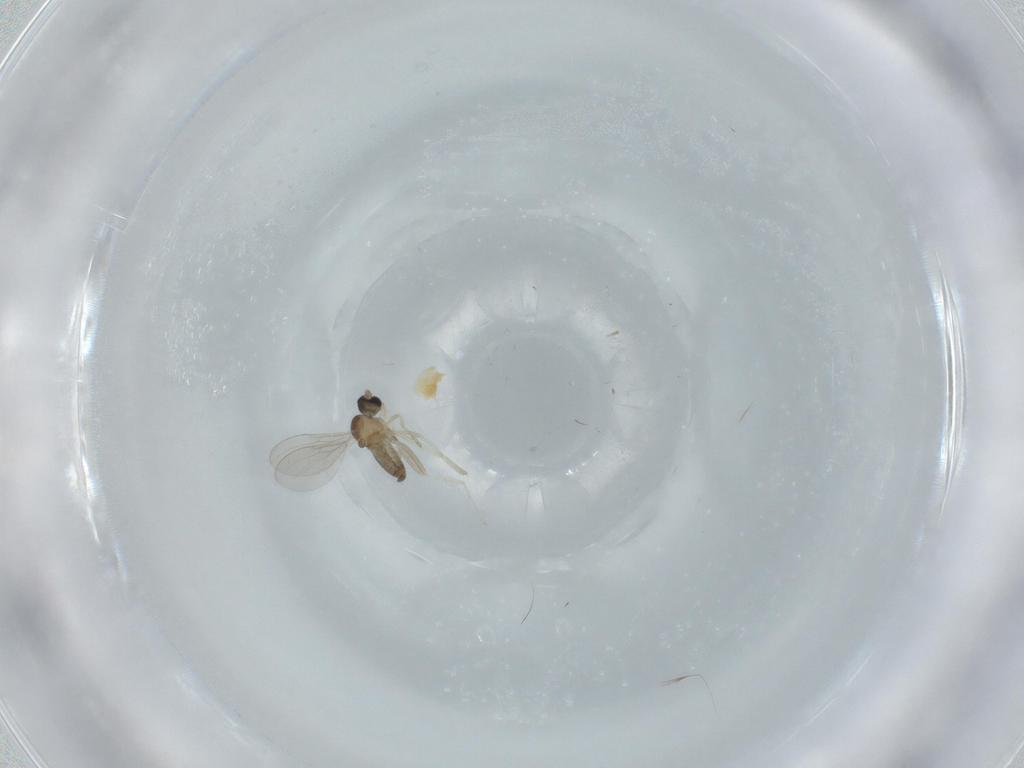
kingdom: Animalia
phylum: Arthropoda
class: Insecta
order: Diptera
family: Cecidomyiidae
